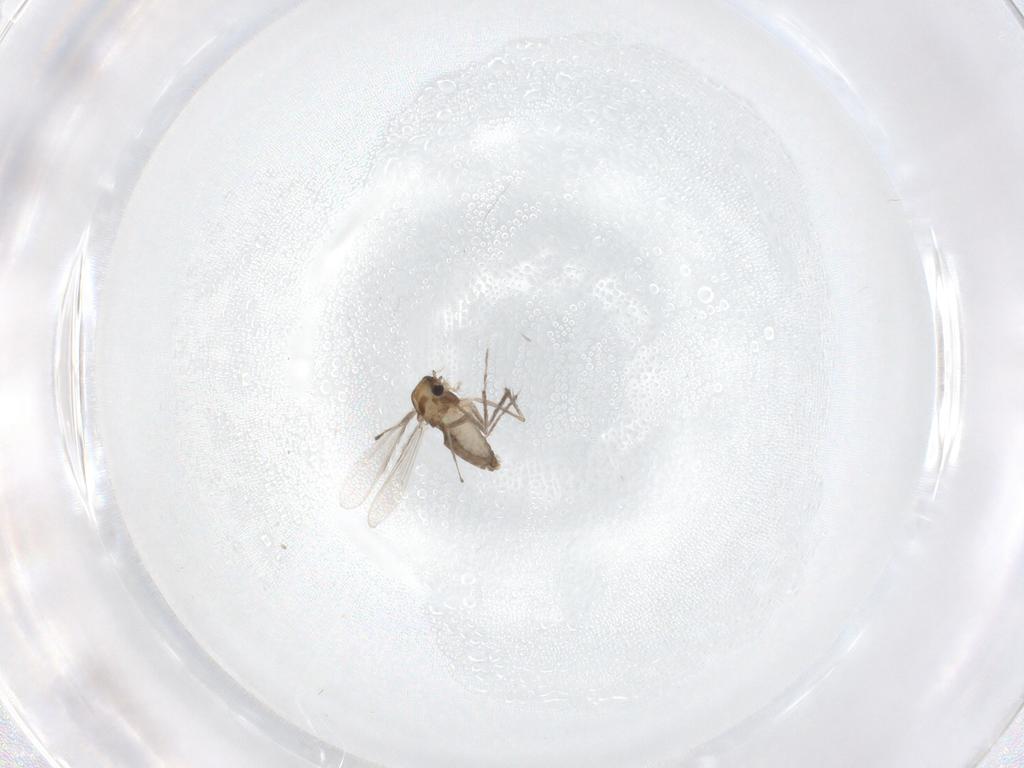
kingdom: Animalia
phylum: Arthropoda
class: Insecta
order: Diptera
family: Chironomidae
